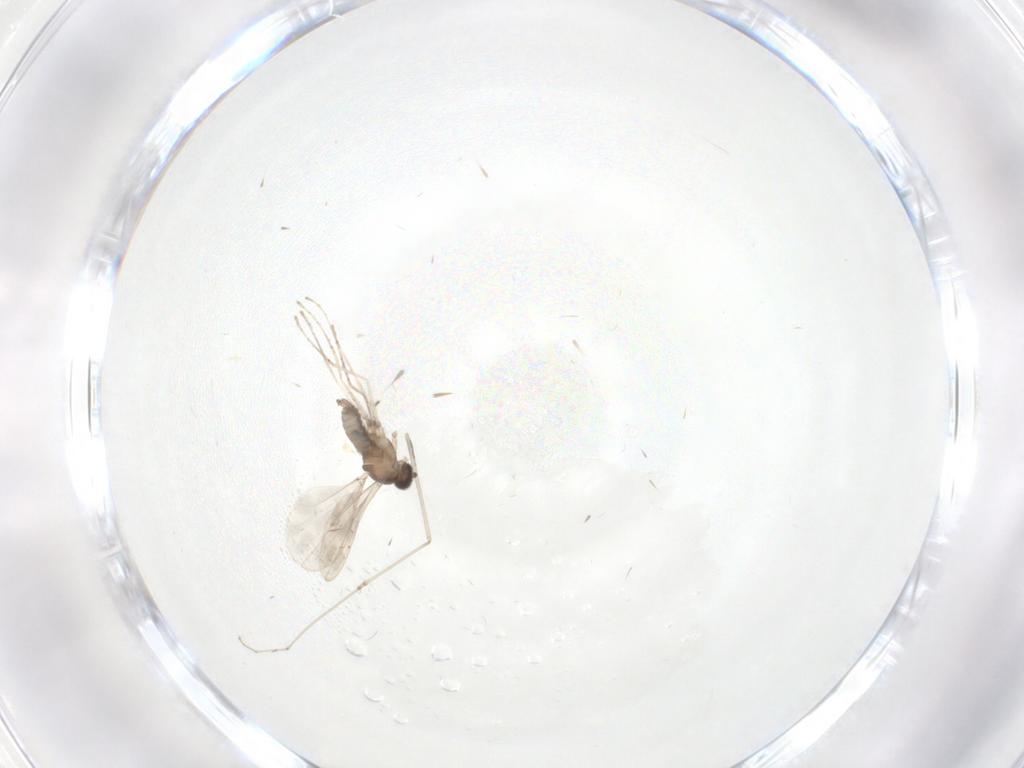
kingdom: Animalia
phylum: Arthropoda
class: Insecta
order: Diptera
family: Cecidomyiidae
